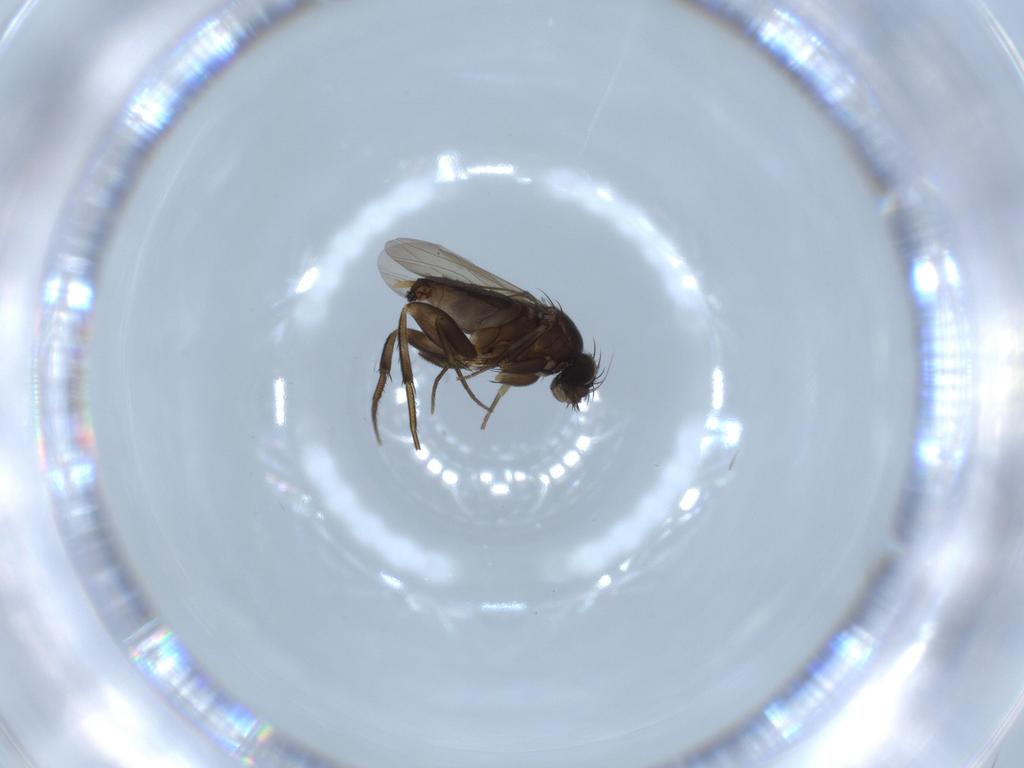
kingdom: Animalia
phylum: Arthropoda
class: Insecta
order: Diptera
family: Phoridae
